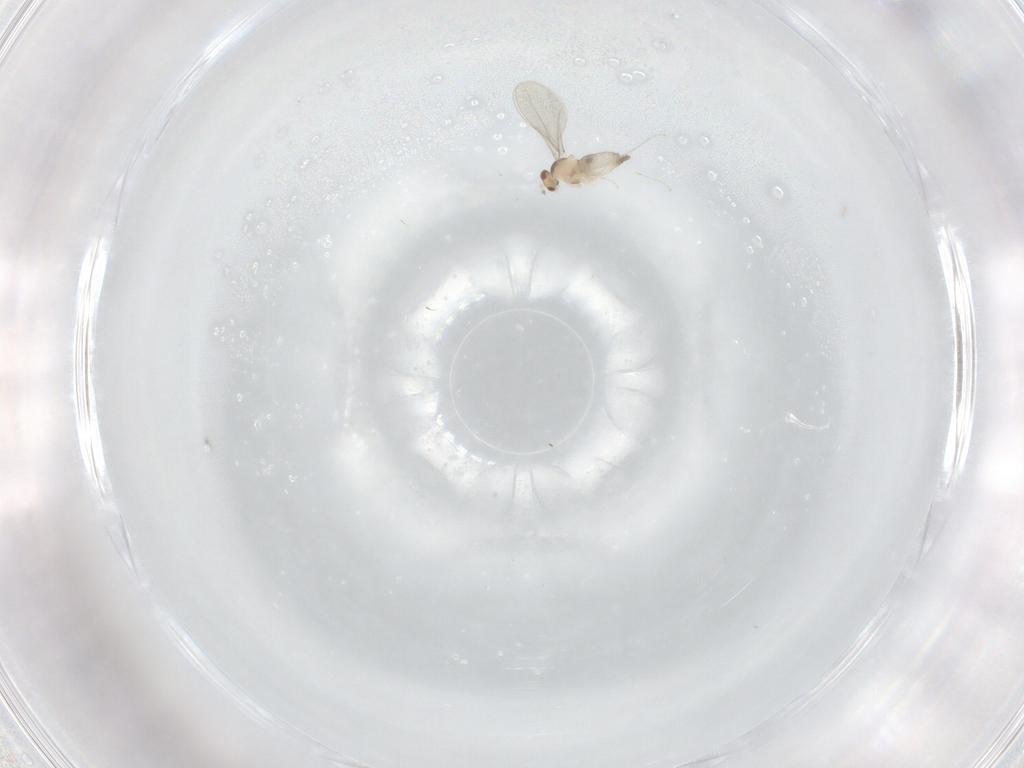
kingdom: Animalia
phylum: Arthropoda
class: Insecta
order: Diptera
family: Cecidomyiidae
